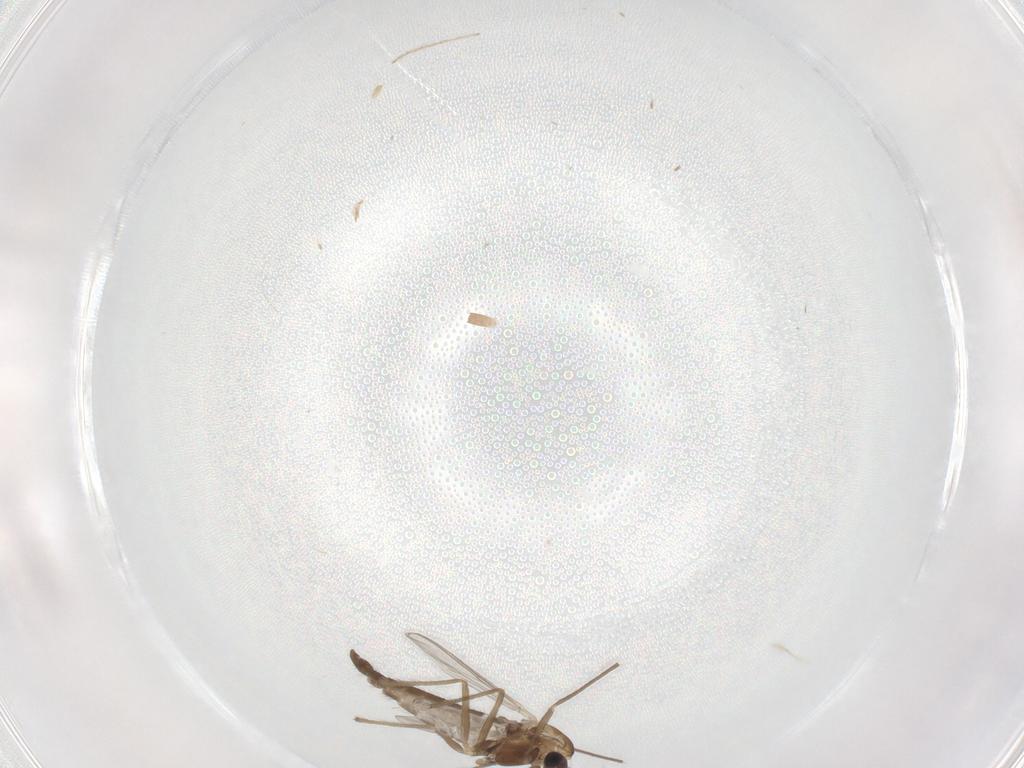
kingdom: Animalia
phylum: Arthropoda
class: Insecta
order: Diptera
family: Chironomidae
